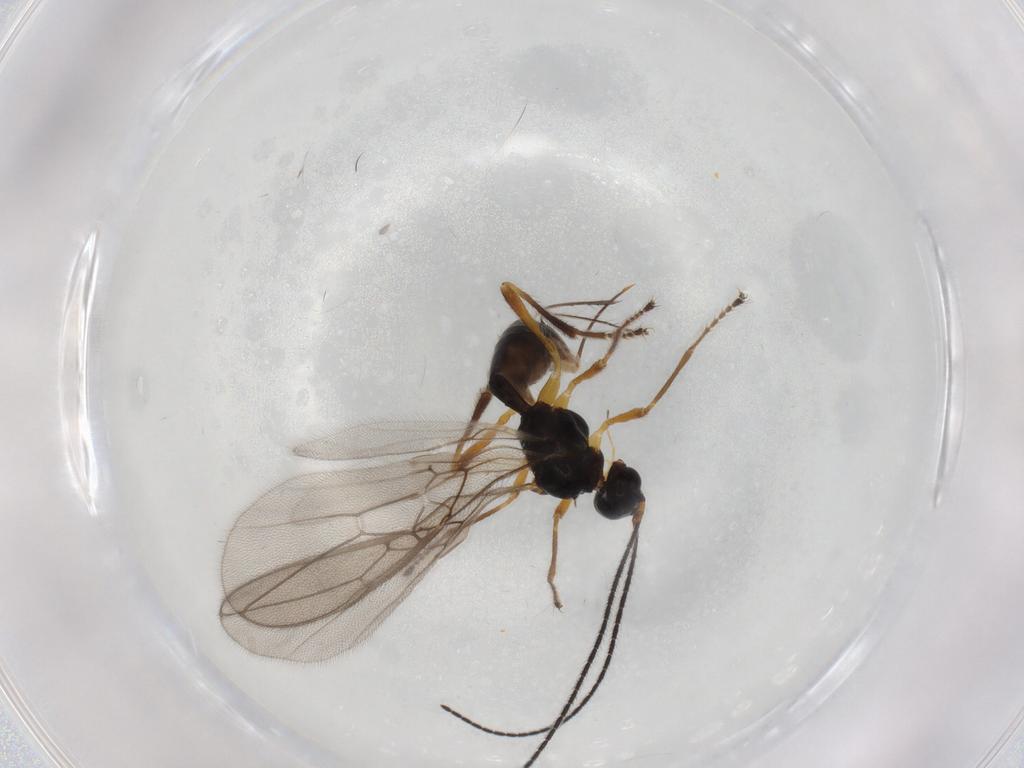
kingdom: Animalia
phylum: Arthropoda
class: Insecta
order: Hymenoptera
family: Braconidae
